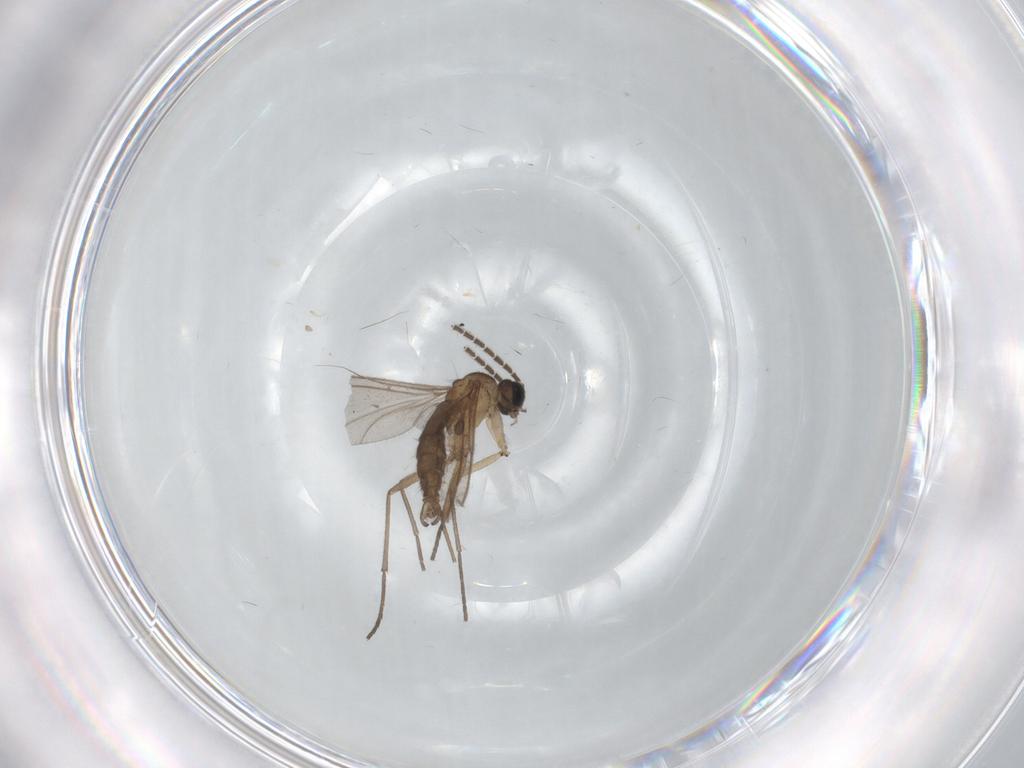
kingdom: Animalia
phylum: Arthropoda
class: Insecta
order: Diptera
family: Sciaridae
